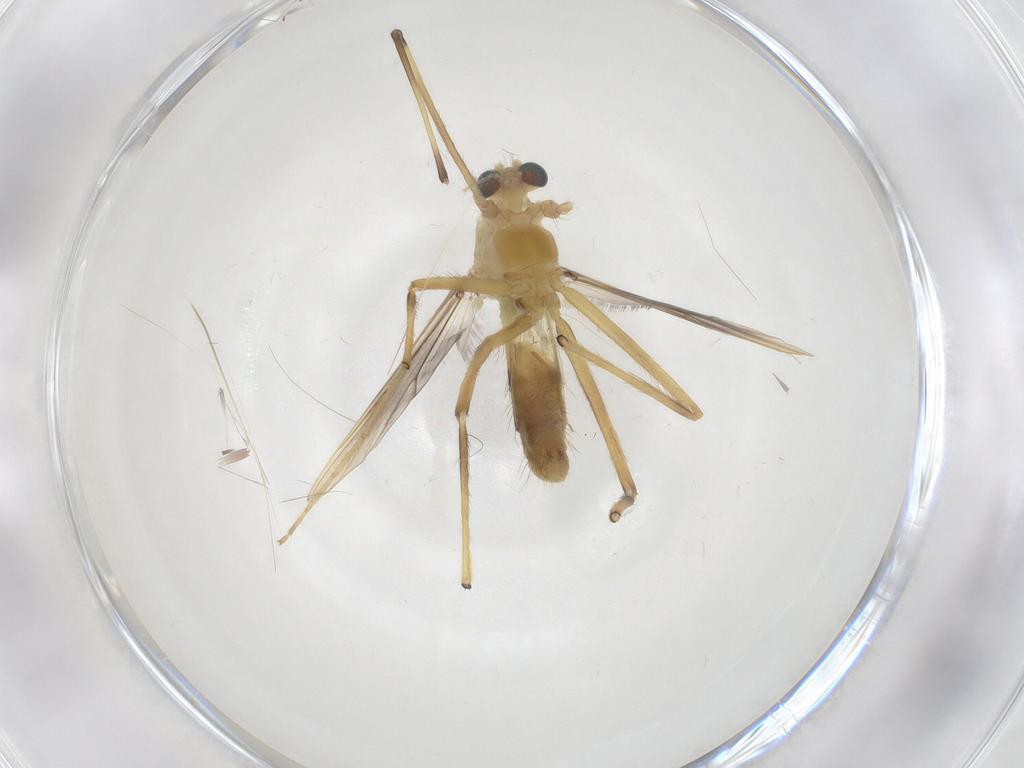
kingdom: Animalia
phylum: Arthropoda
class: Insecta
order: Diptera
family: Chironomidae
